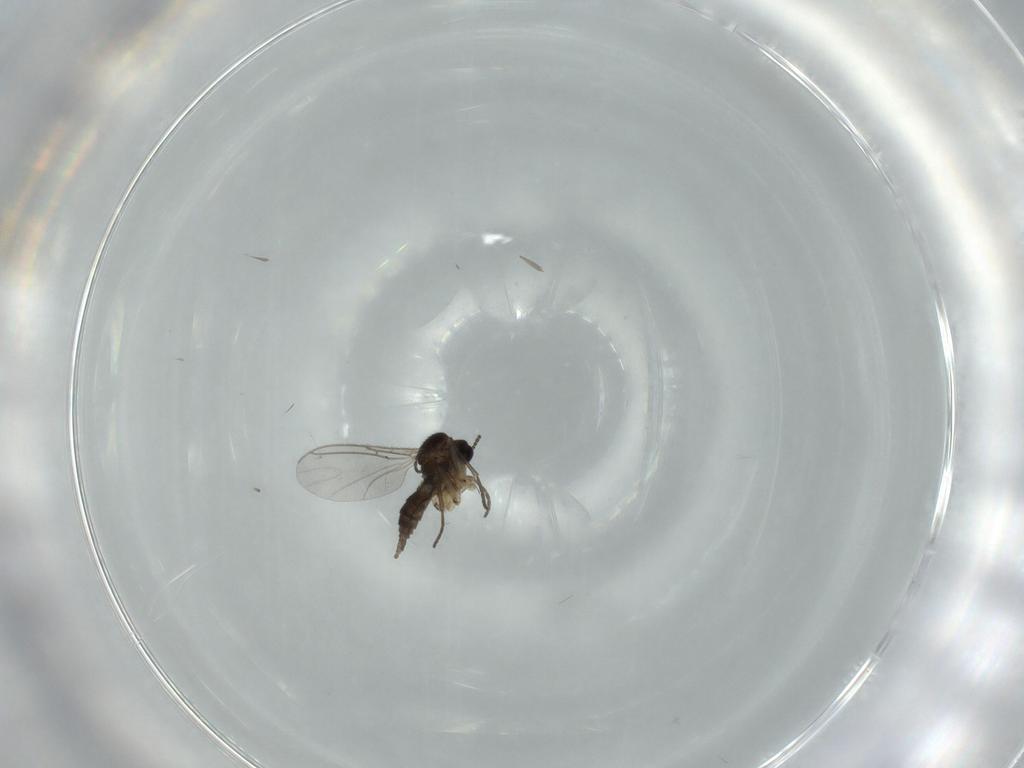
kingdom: Animalia
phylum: Arthropoda
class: Insecta
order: Diptera
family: Sciaridae
